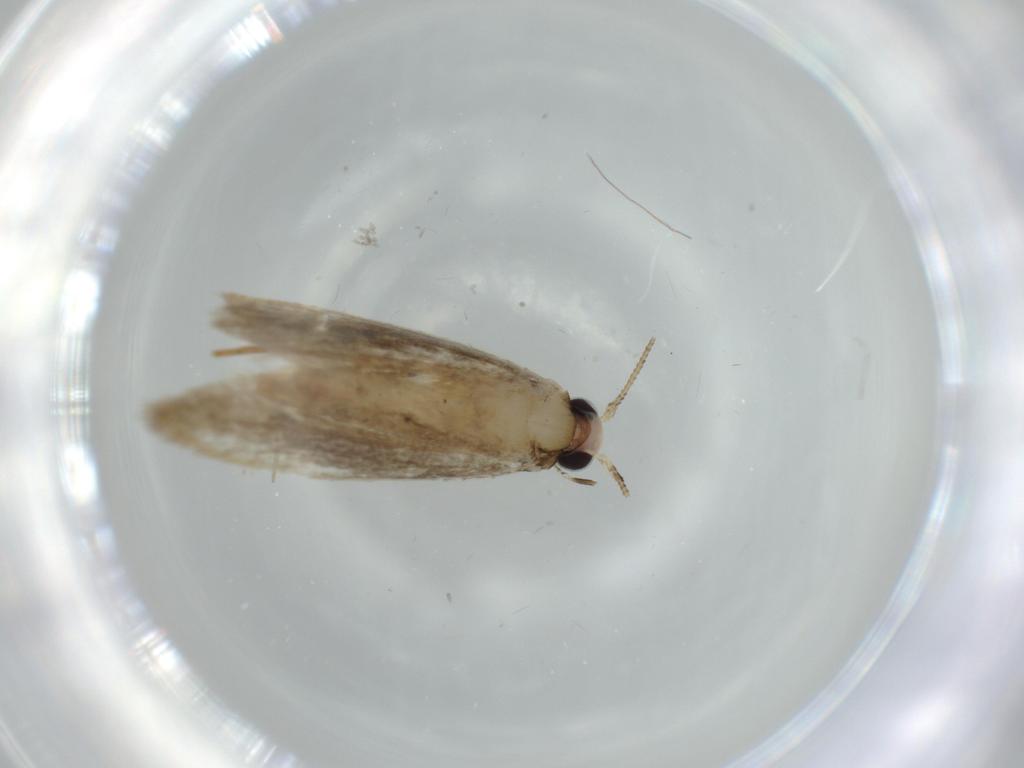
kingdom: Animalia
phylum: Arthropoda
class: Insecta
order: Lepidoptera
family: Tineidae
